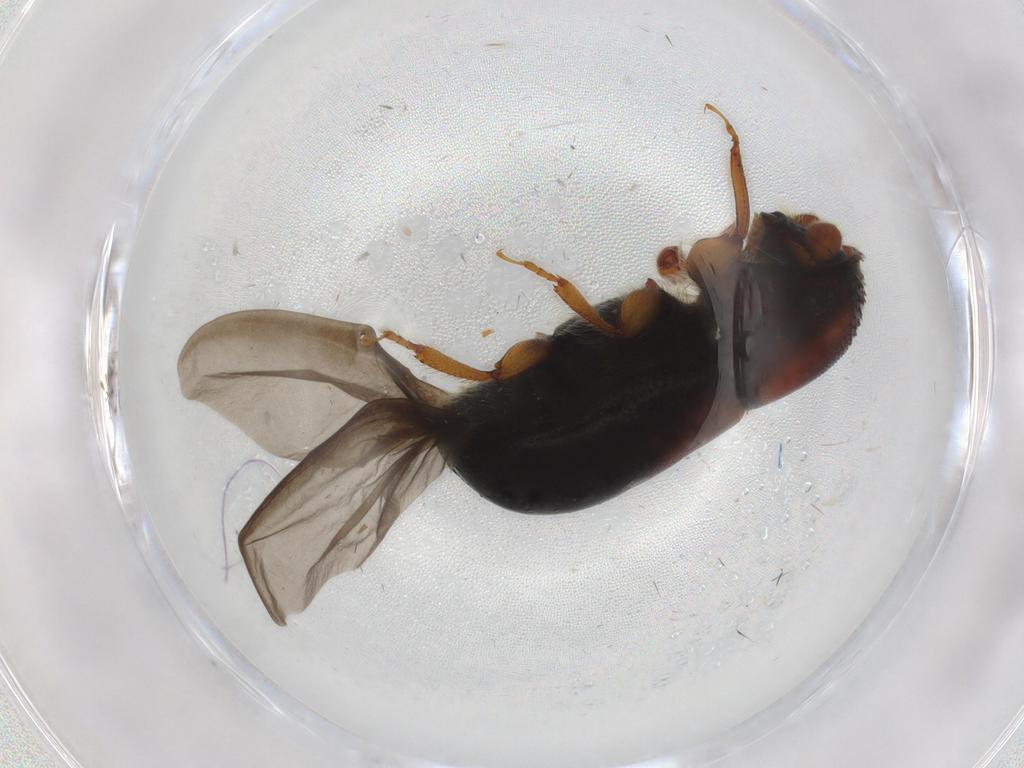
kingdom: Animalia
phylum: Arthropoda
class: Insecta
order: Coleoptera
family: Curculionidae
